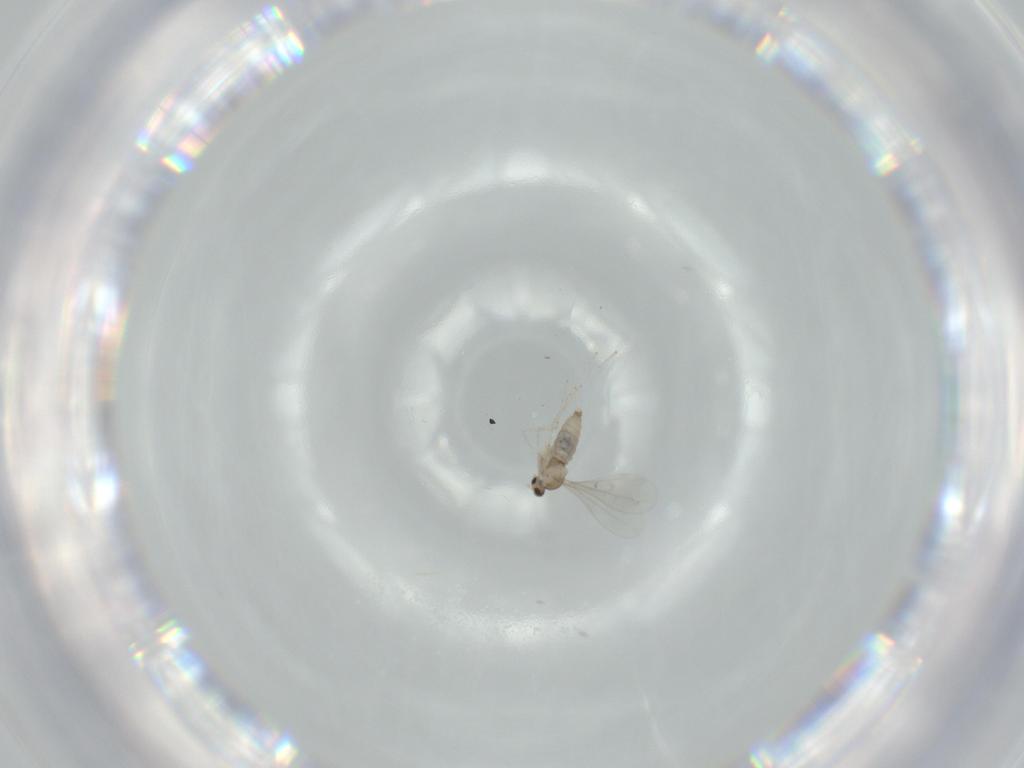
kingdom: Animalia
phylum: Arthropoda
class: Insecta
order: Diptera
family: Cecidomyiidae
